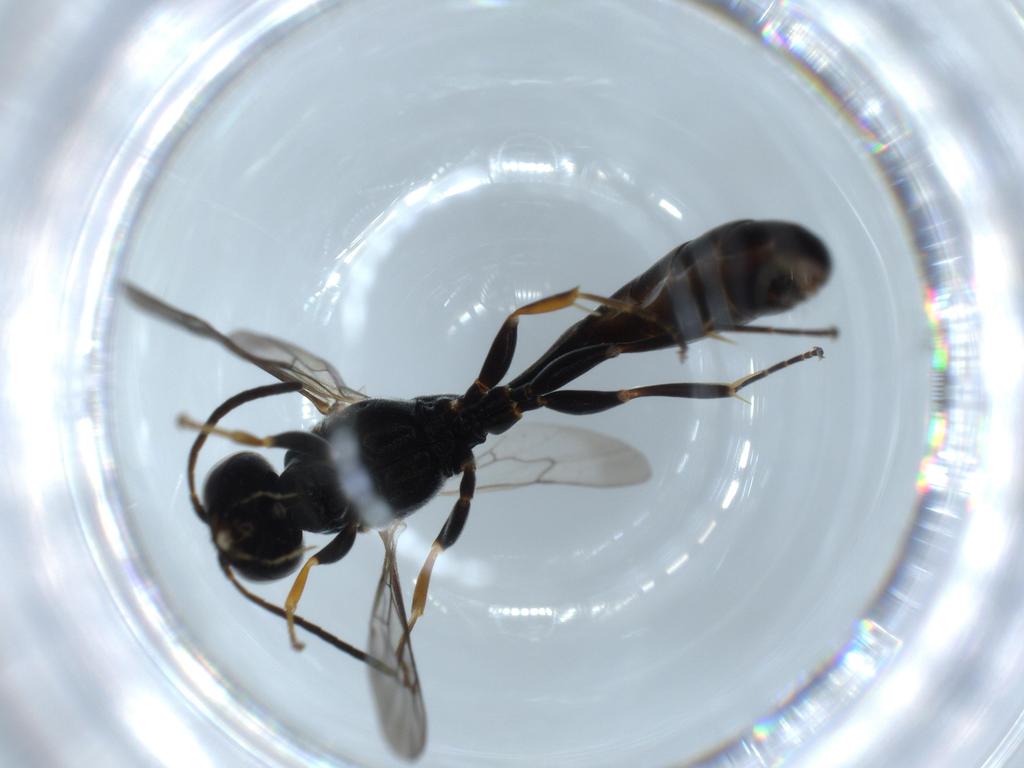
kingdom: Animalia
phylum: Arthropoda
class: Insecta
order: Hymenoptera
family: Crabronidae
